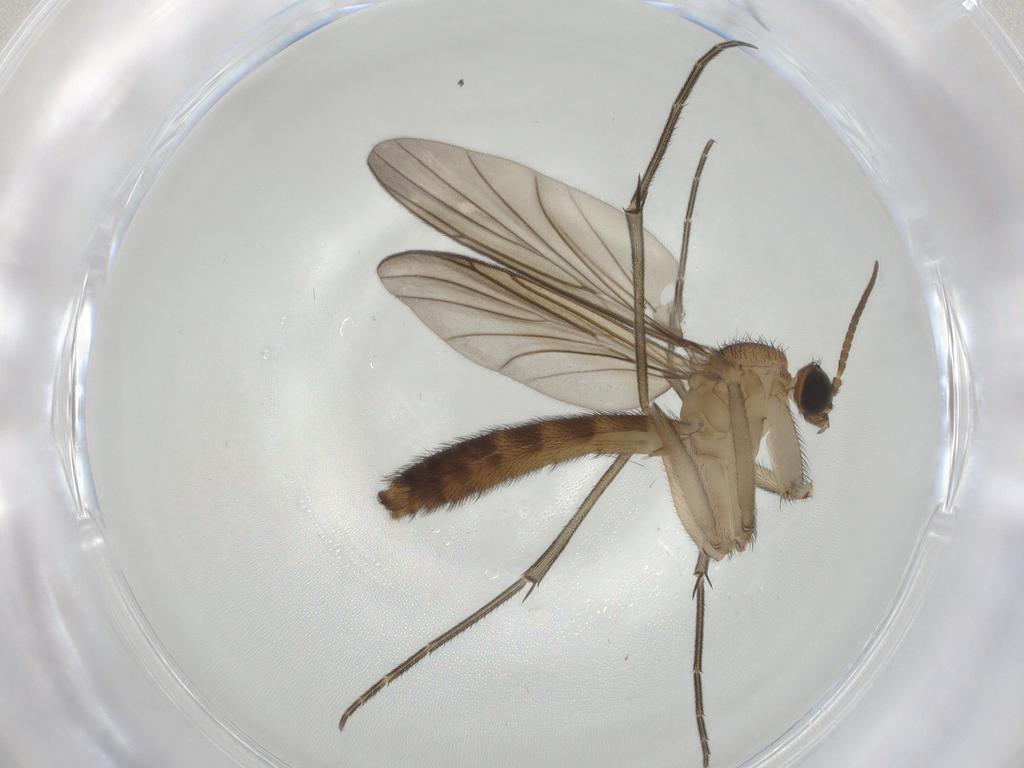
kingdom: Animalia
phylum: Arthropoda
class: Insecta
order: Diptera
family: Keroplatidae
